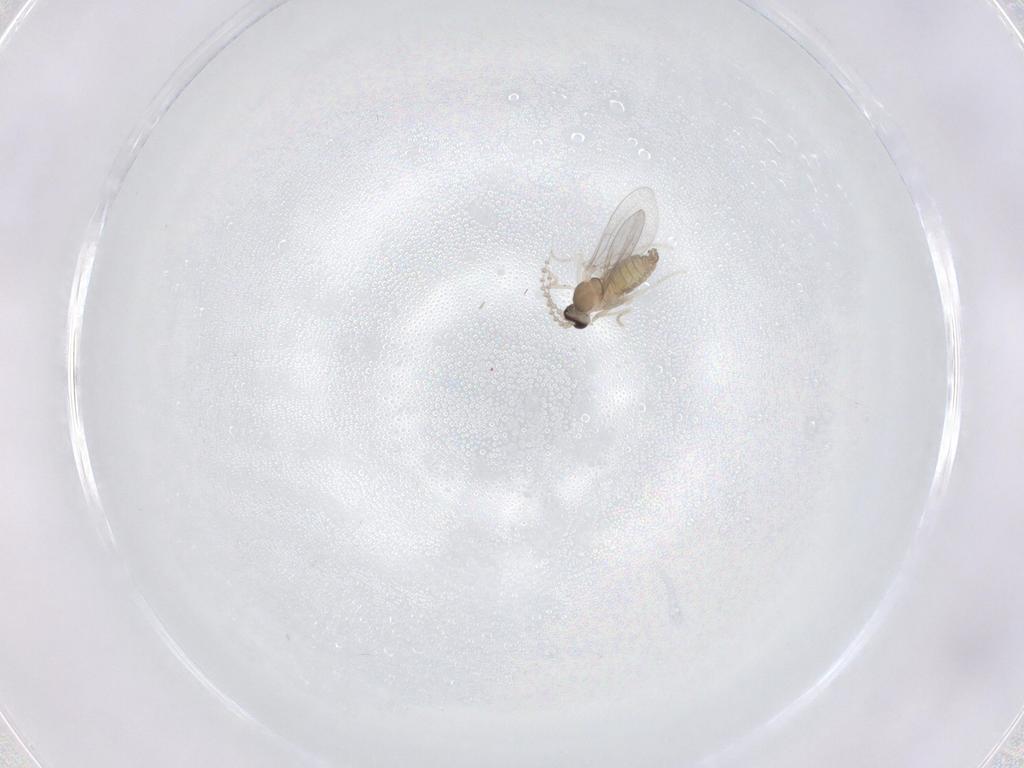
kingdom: Animalia
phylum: Arthropoda
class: Insecta
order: Diptera
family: Cecidomyiidae
